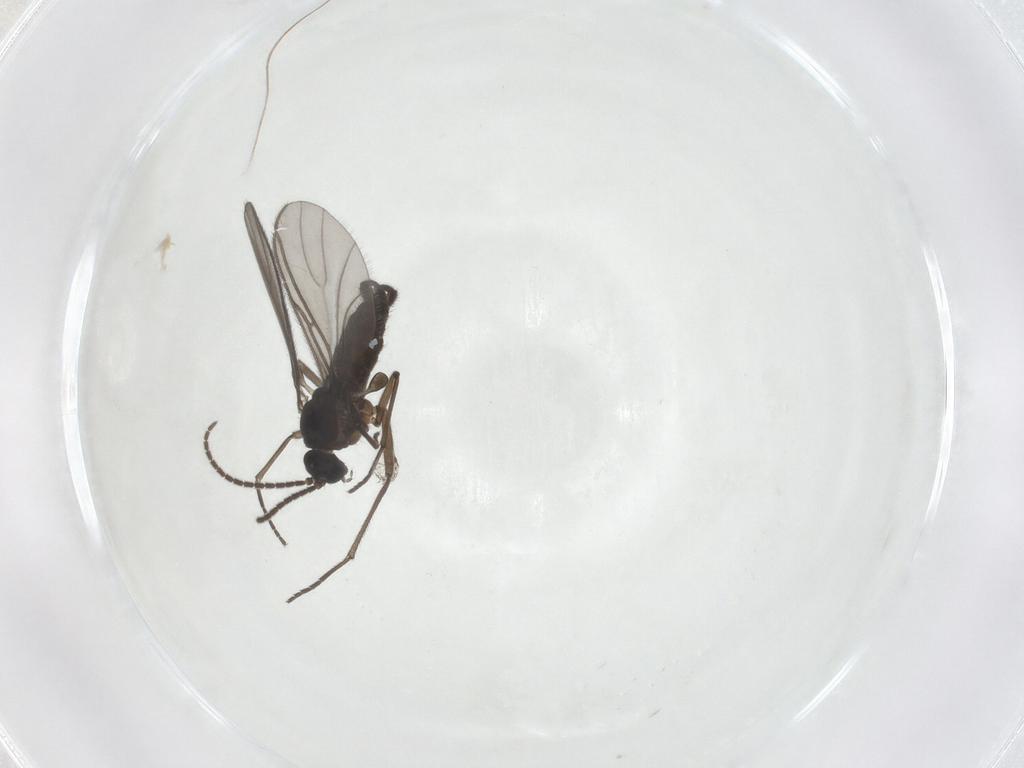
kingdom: Animalia
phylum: Arthropoda
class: Insecta
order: Diptera
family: Sciaridae
